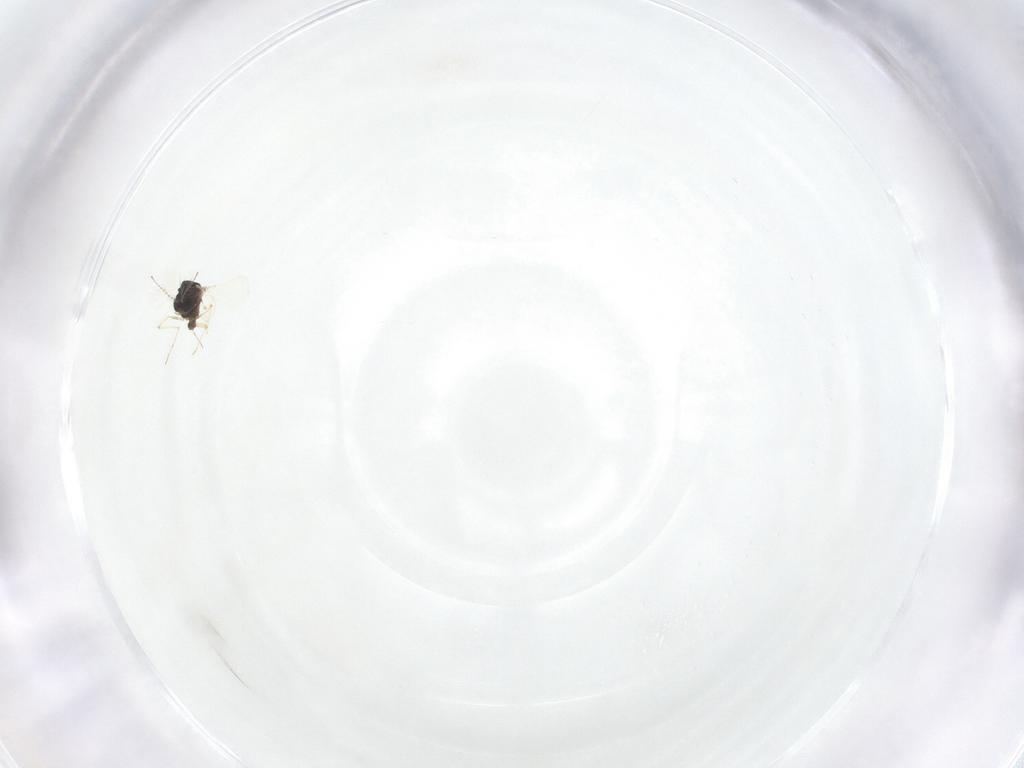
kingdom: Animalia
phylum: Arthropoda
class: Insecta
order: Diptera
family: Chironomidae
